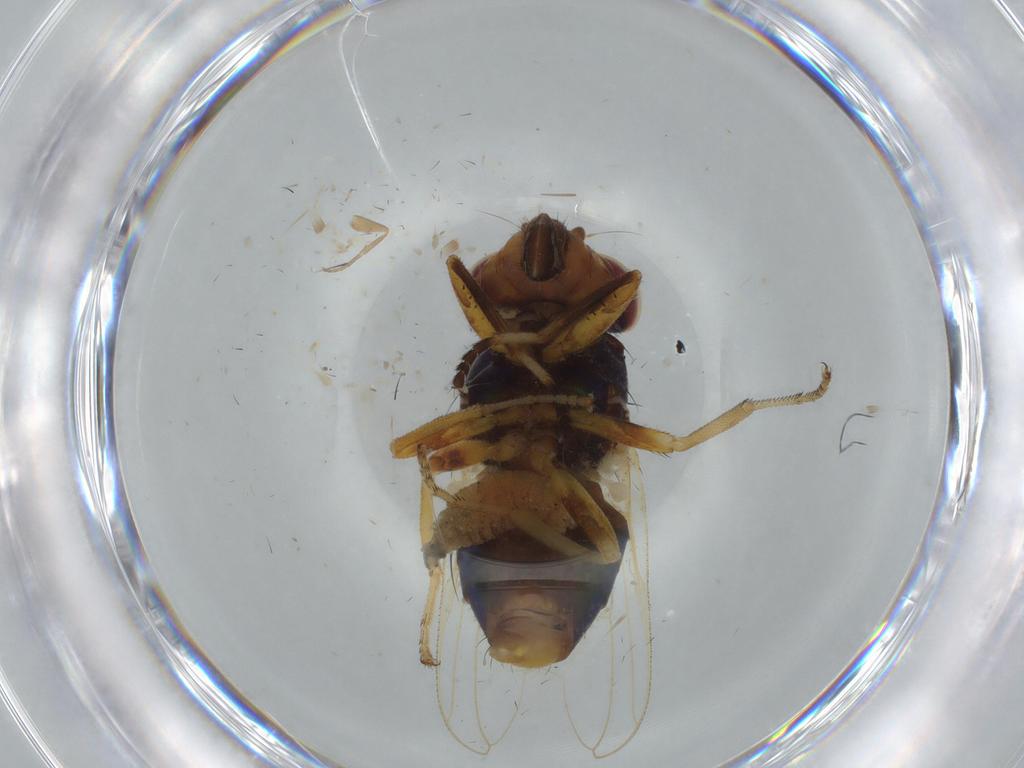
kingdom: Animalia
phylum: Arthropoda
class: Insecta
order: Diptera
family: Ulidiidae
